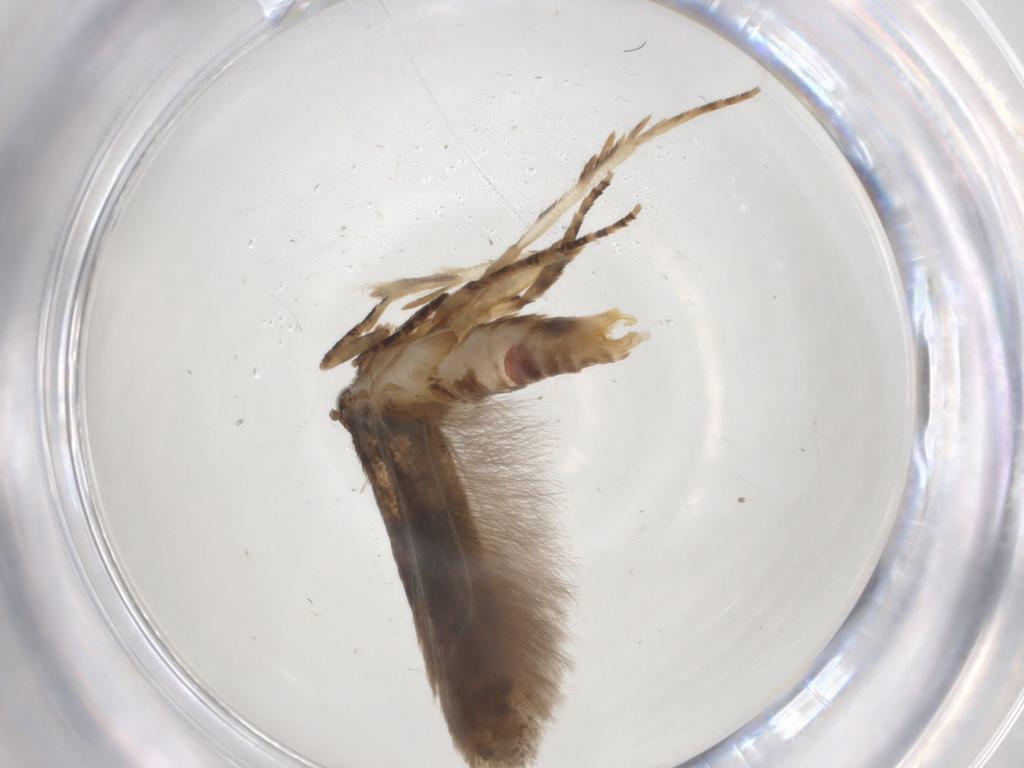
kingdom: Animalia
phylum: Arthropoda
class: Insecta
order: Lepidoptera
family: Gelechiidae
